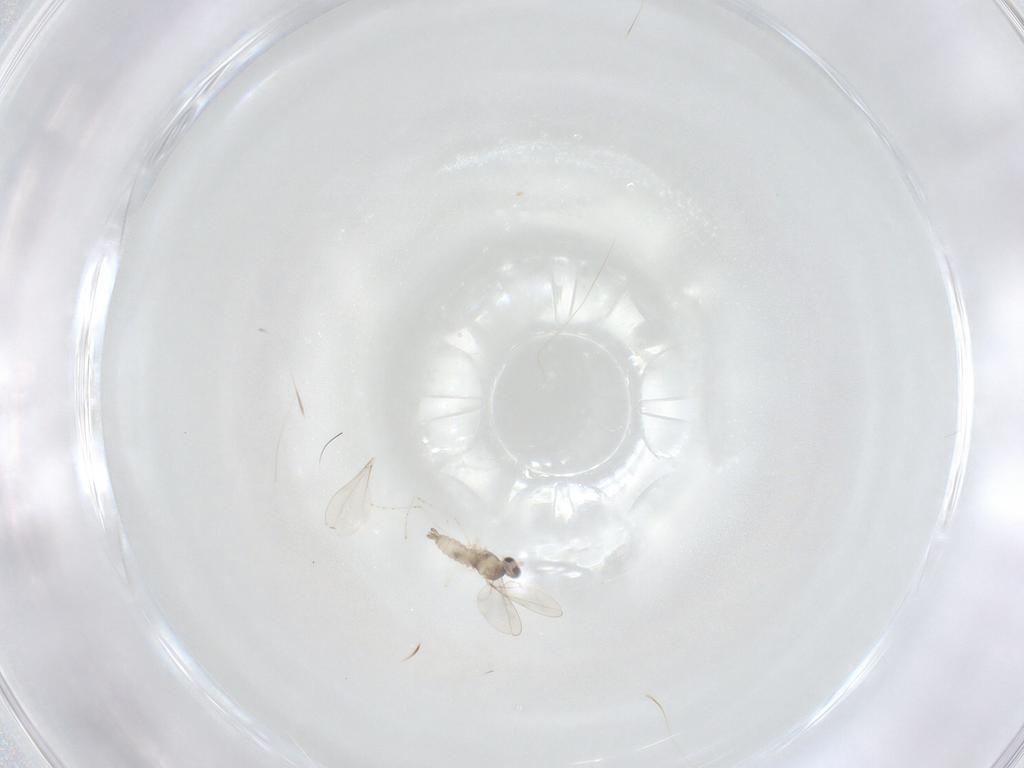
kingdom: Animalia
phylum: Arthropoda
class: Insecta
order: Diptera
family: Cecidomyiidae
